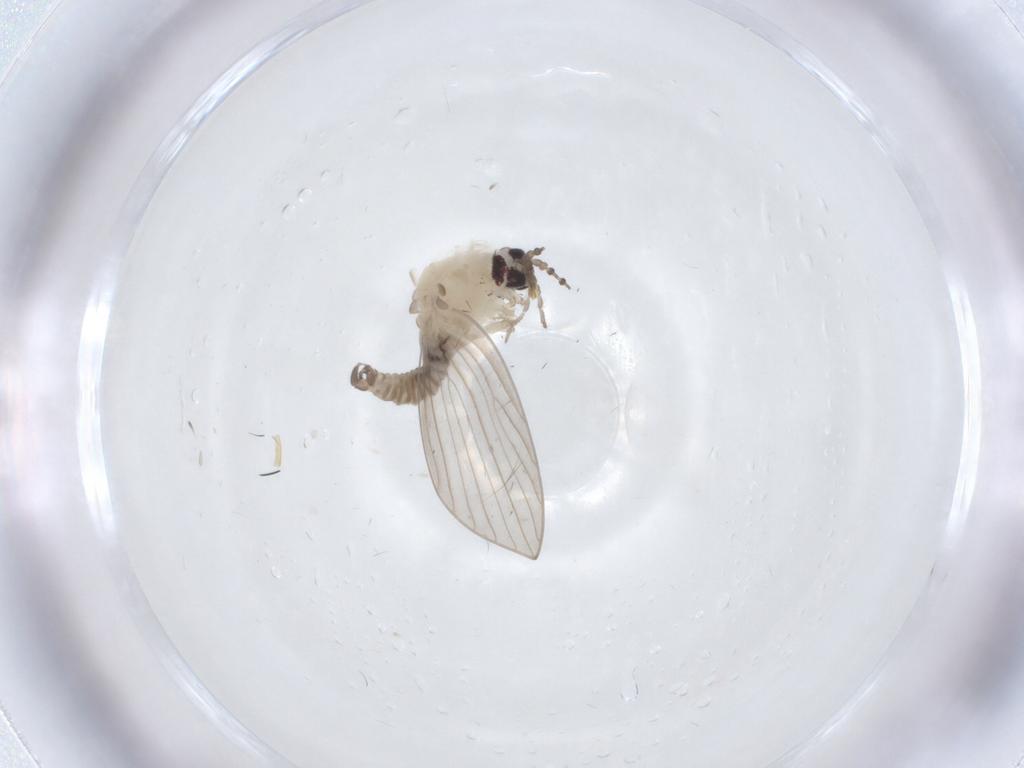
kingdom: Animalia
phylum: Arthropoda
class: Insecta
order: Diptera
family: Psychodidae
